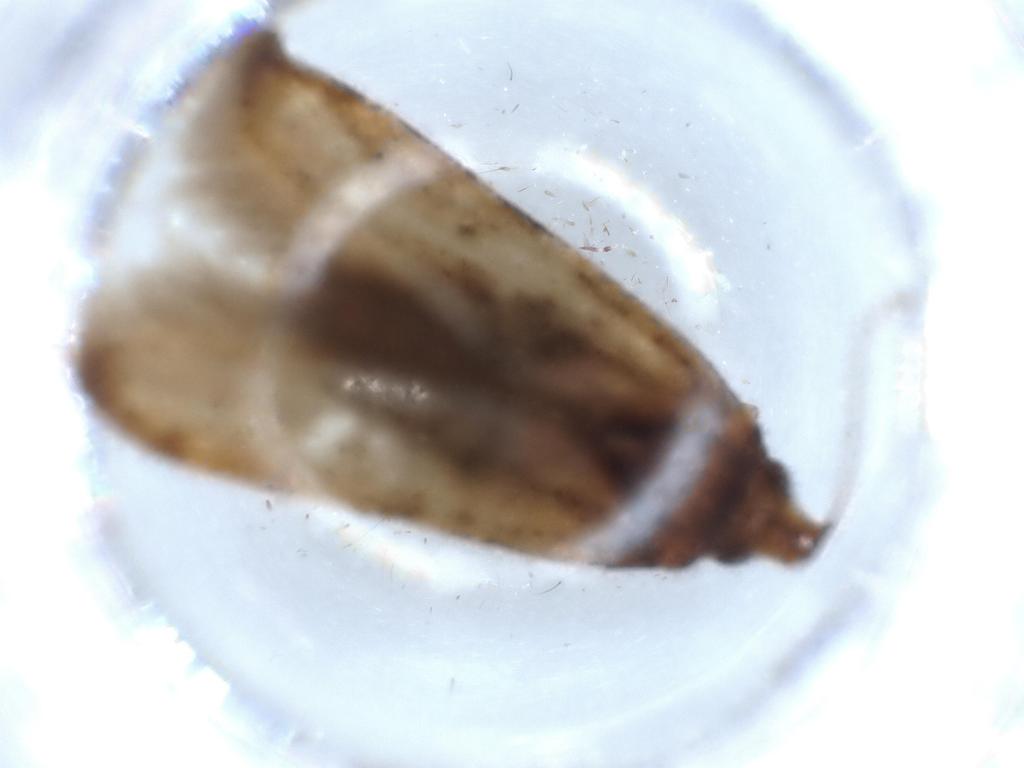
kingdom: Animalia
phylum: Arthropoda
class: Insecta
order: Lepidoptera
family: Blastobasidae
